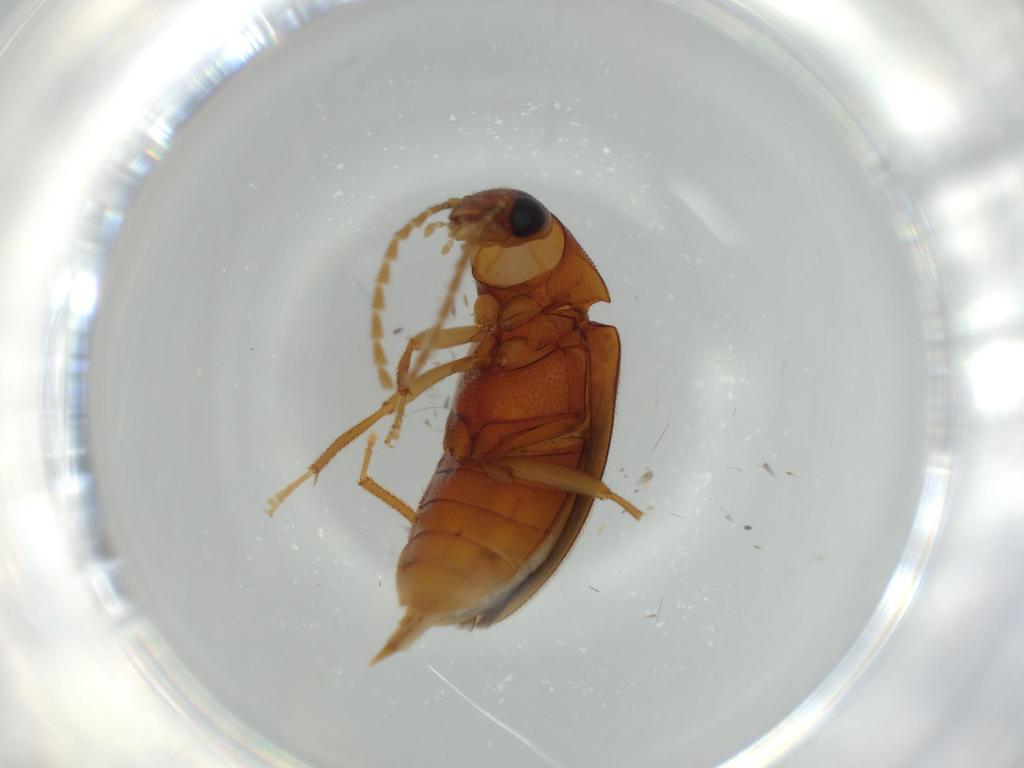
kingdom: Animalia
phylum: Arthropoda
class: Insecta
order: Coleoptera
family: Ptilodactylidae
